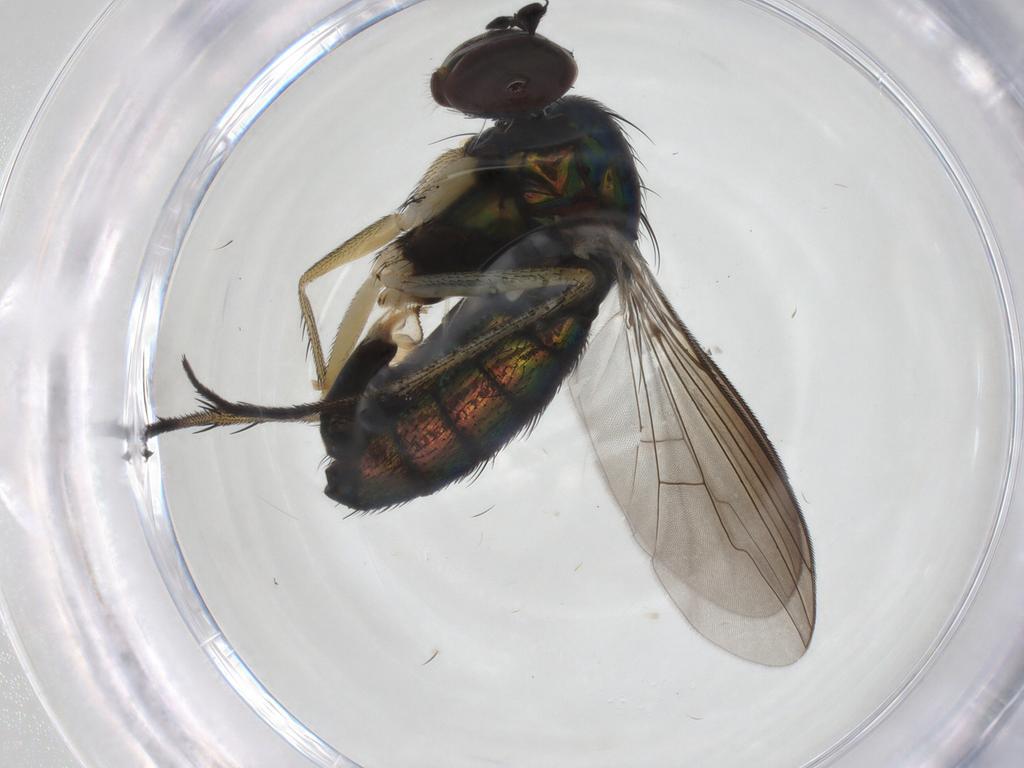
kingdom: Animalia
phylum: Arthropoda
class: Insecta
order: Diptera
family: Dolichopodidae
